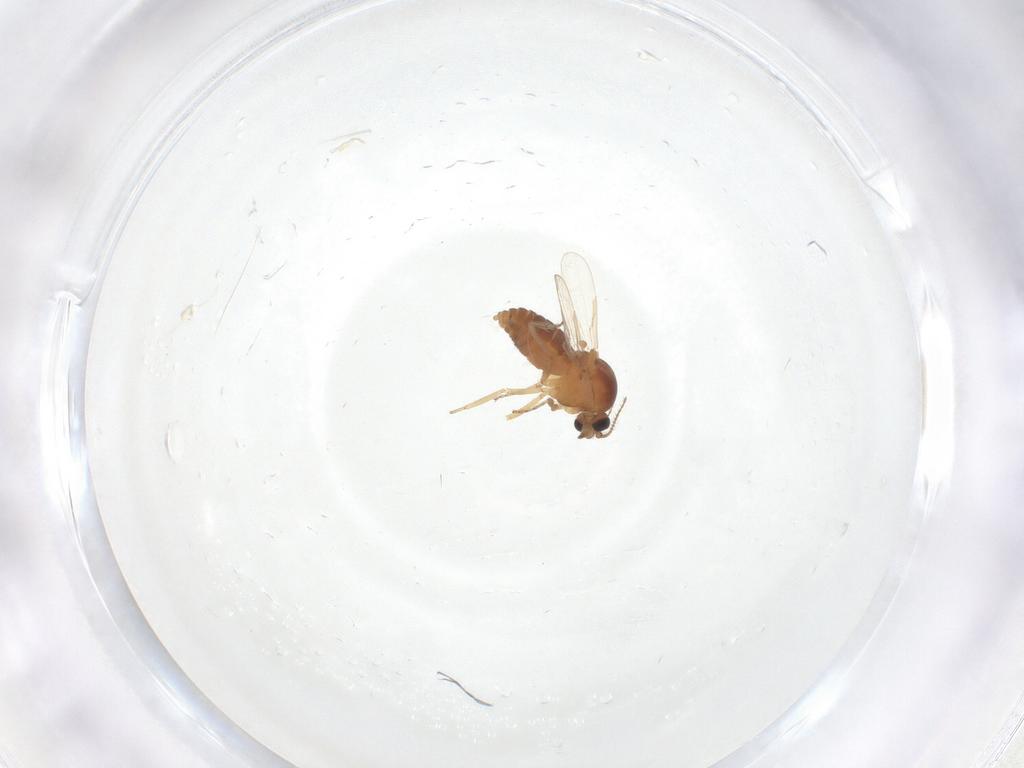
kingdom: Animalia
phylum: Arthropoda
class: Insecta
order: Diptera
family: Ceratopogonidae
